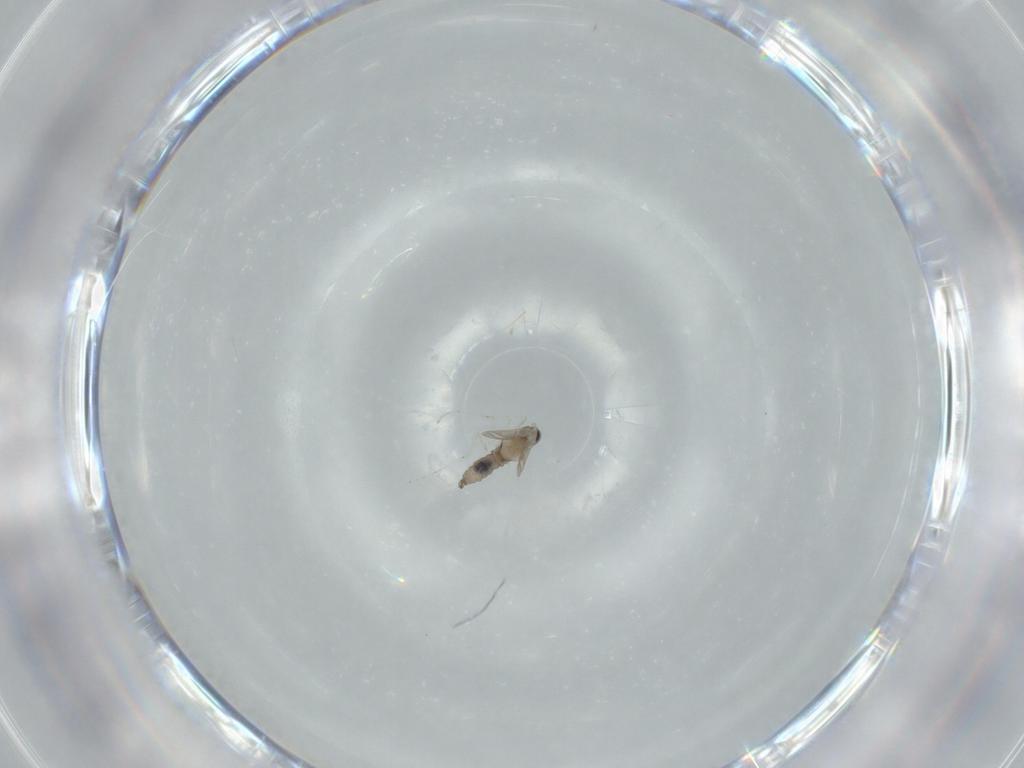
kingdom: Animalia
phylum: Arthropoda
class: Insecta
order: Diptera
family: Cecidomyiidae
